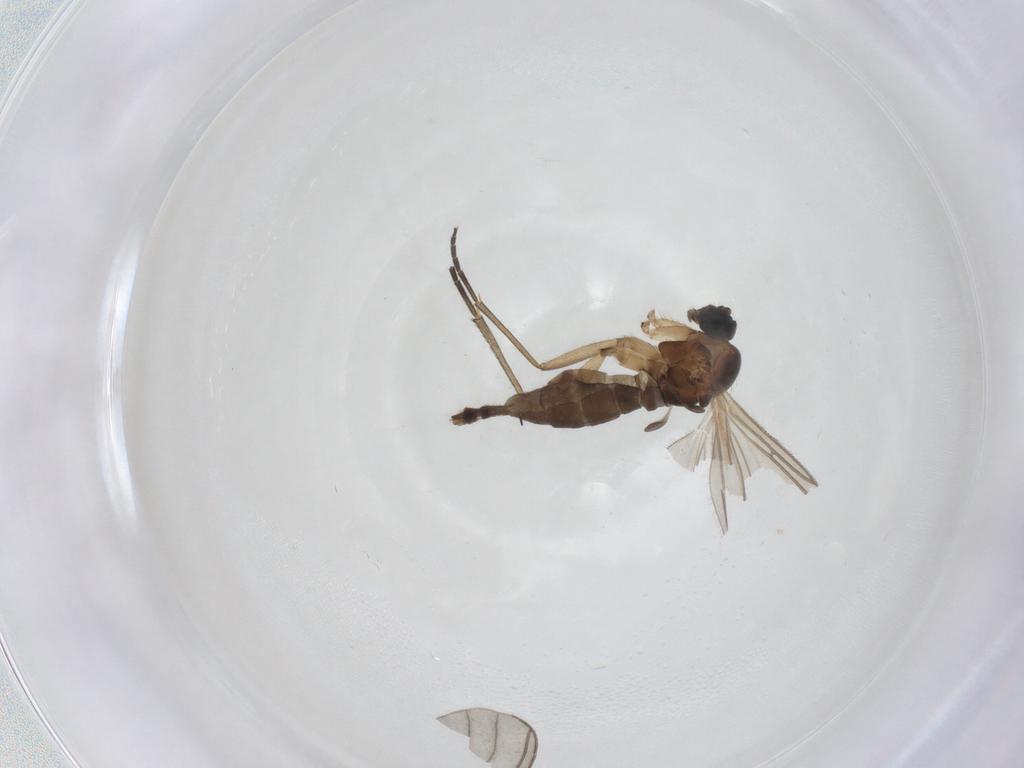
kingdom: Animalia
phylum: Arthropoda
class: Insecta
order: Diptera
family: Sciaridae
